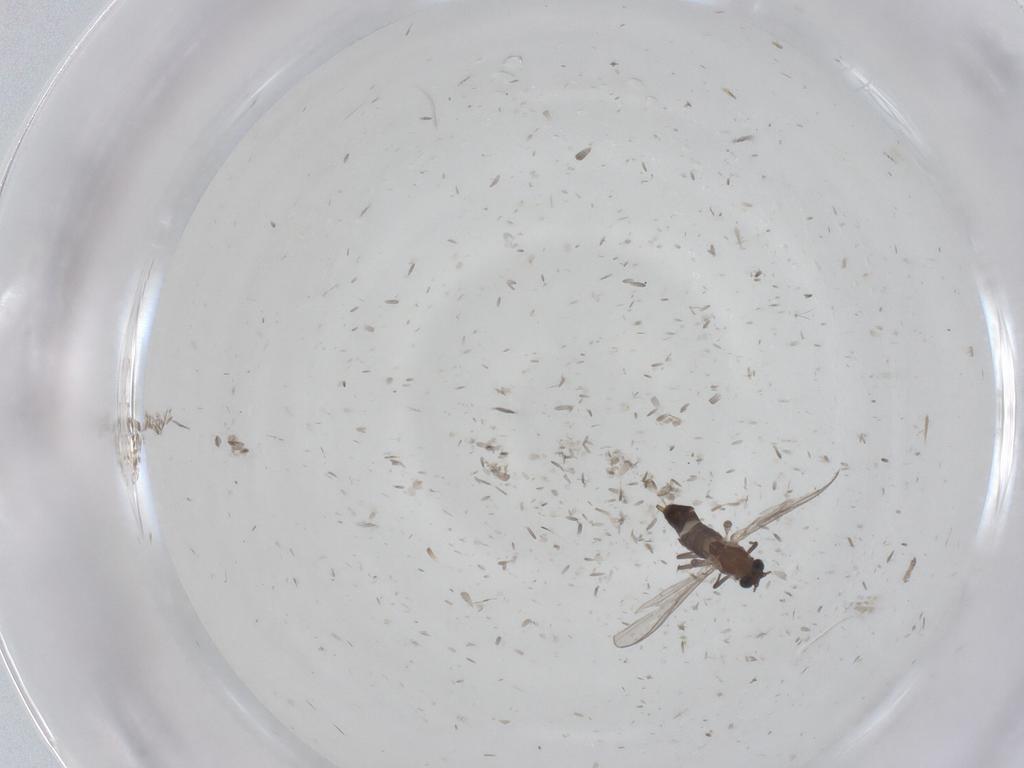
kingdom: Animalia
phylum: Arthropoda
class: Insecta
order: Diptera
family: Chironomidae
